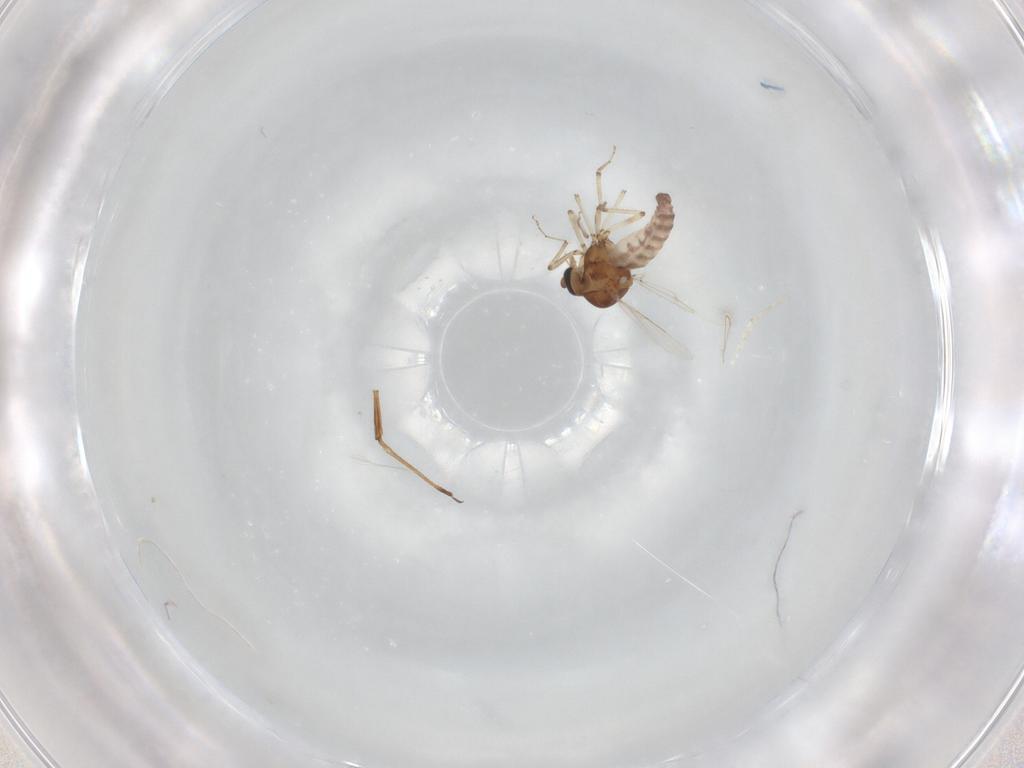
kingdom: Animalia
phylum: Arthropoda
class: Insecta
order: Diptera
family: Ceratopogonidae
